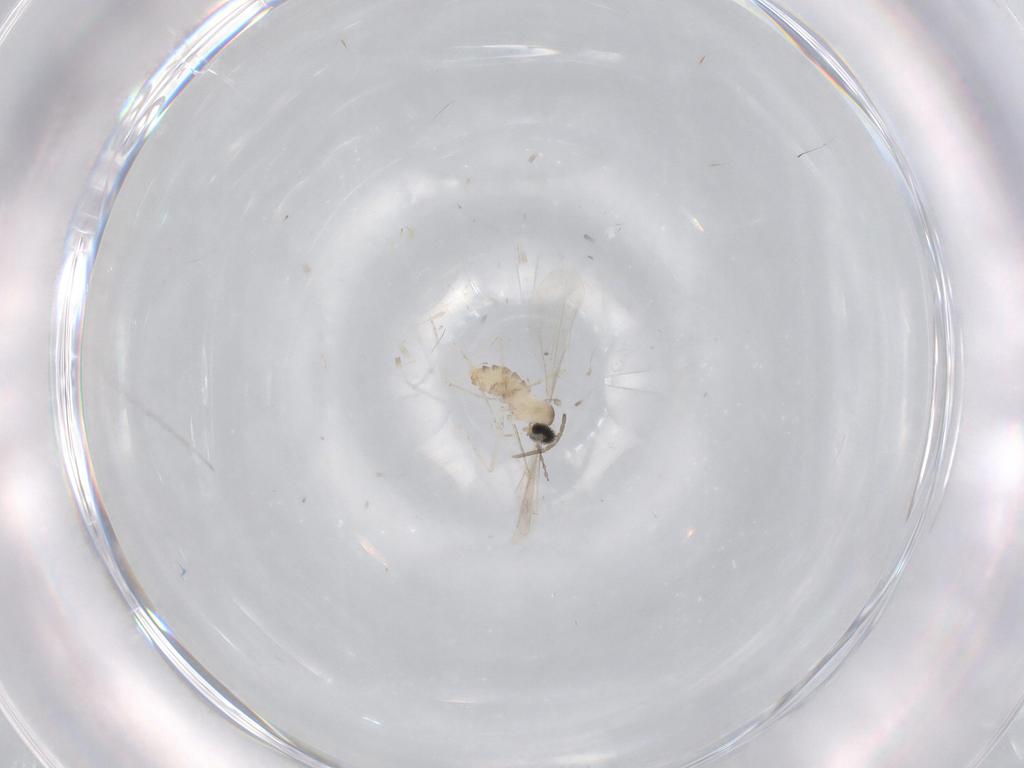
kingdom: Animalia
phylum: Arthropoda
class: Insecta
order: Diptera
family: Cecidomyiidae
